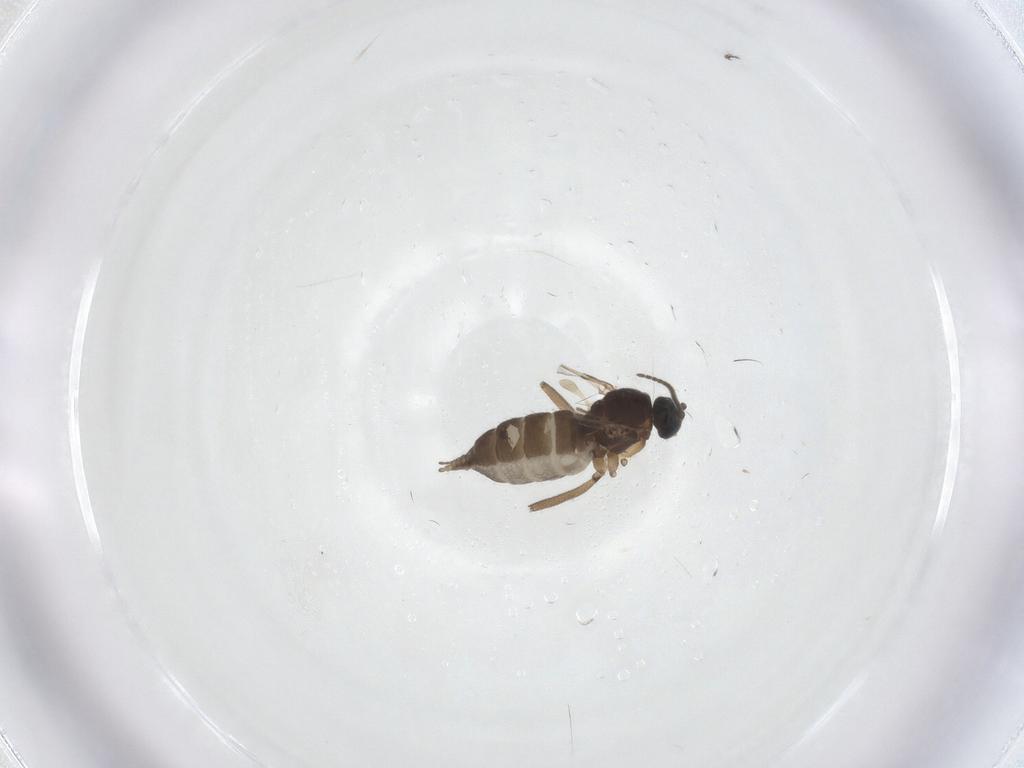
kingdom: Animalia
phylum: Arthropoda
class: Insecta
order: Diptera
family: Sciaridae
